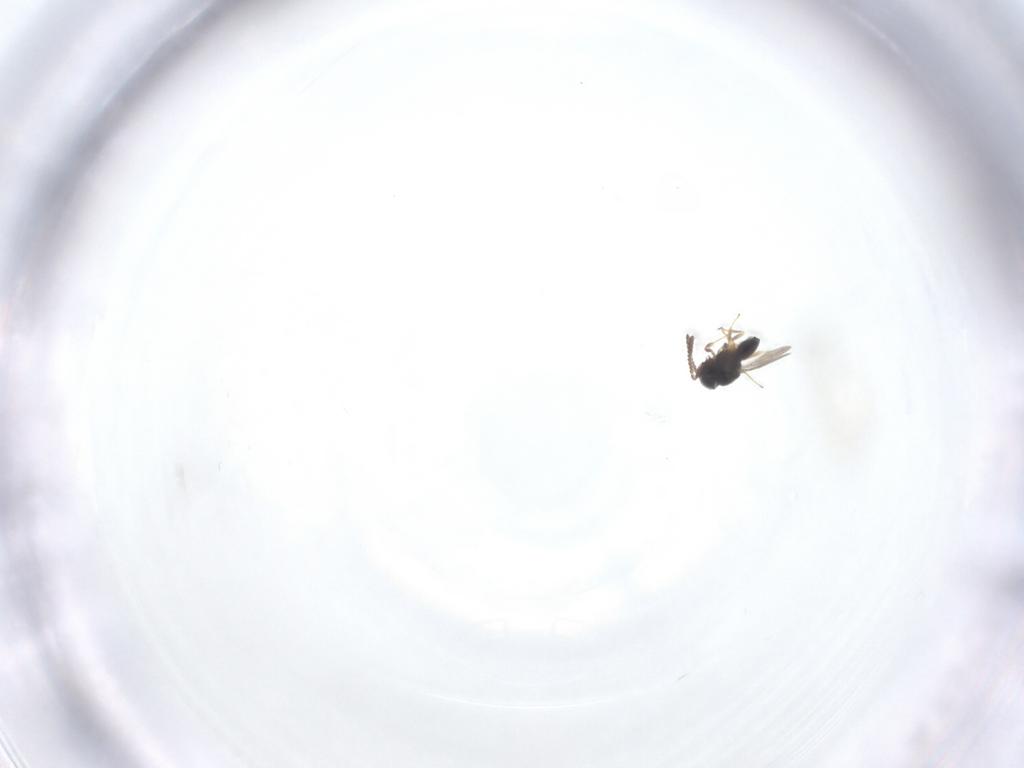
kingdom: Animalia
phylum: Arthropoda
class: Insecta
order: Hymenoptera
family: Scelionidae
